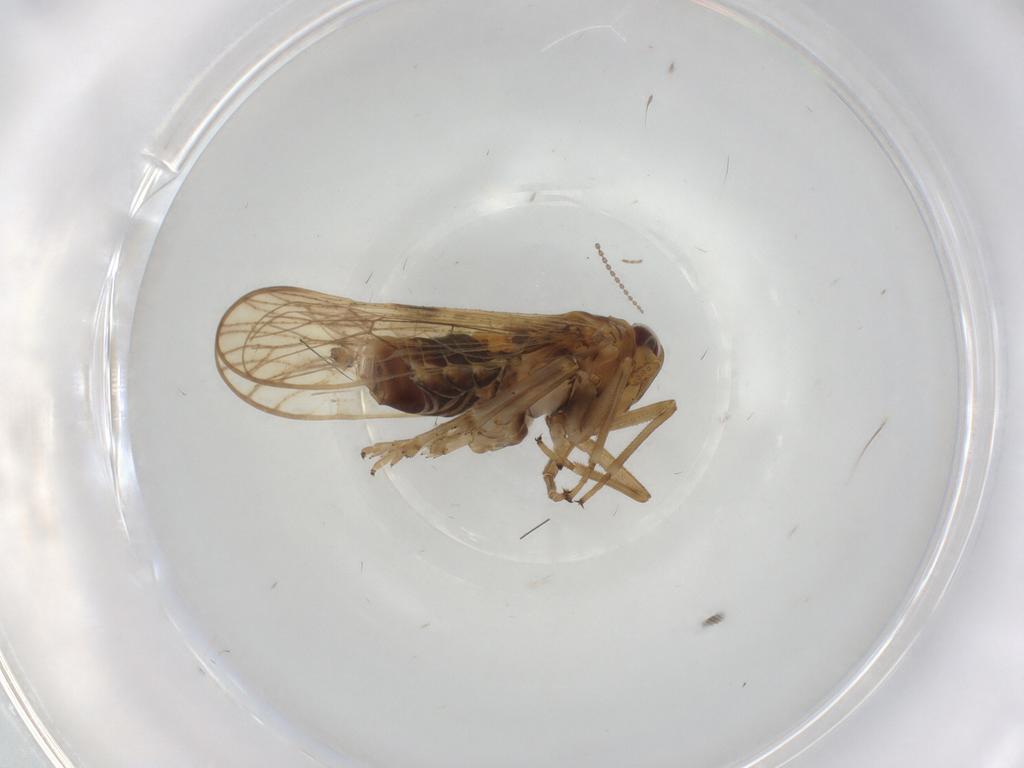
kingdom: Animalia
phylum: Arthropoda
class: Insecta
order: Hemiptera
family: Delphacidae
